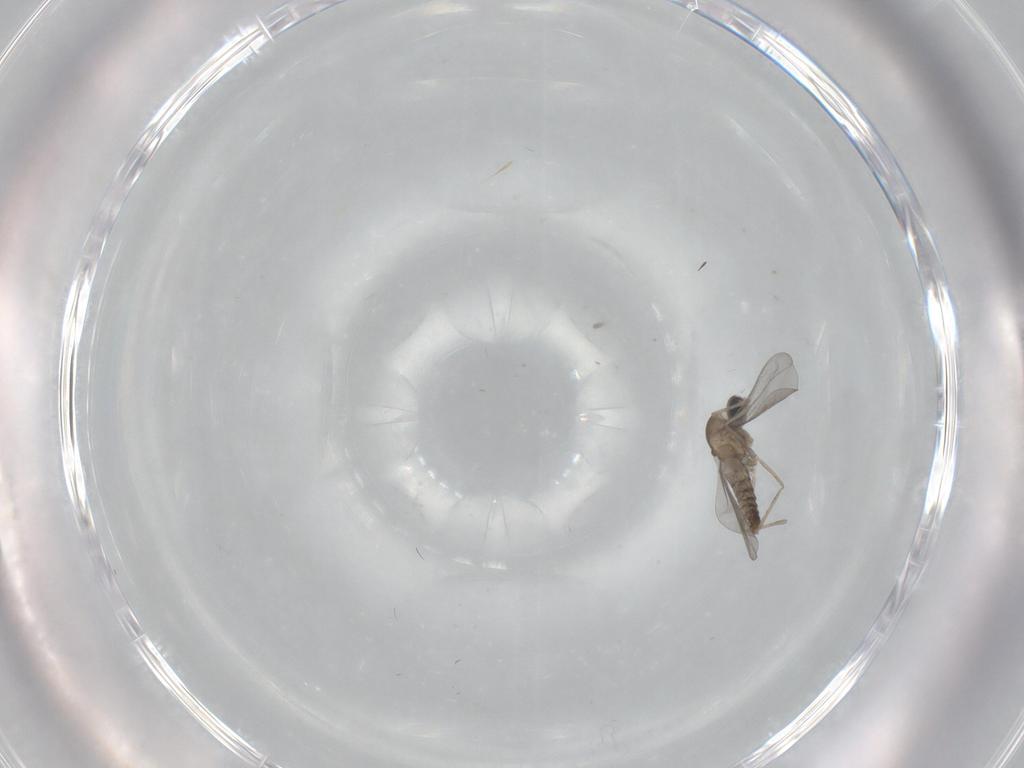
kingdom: Animalia
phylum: Arthropoda
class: Insecta
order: Diptera
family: Cecidomyiidae
